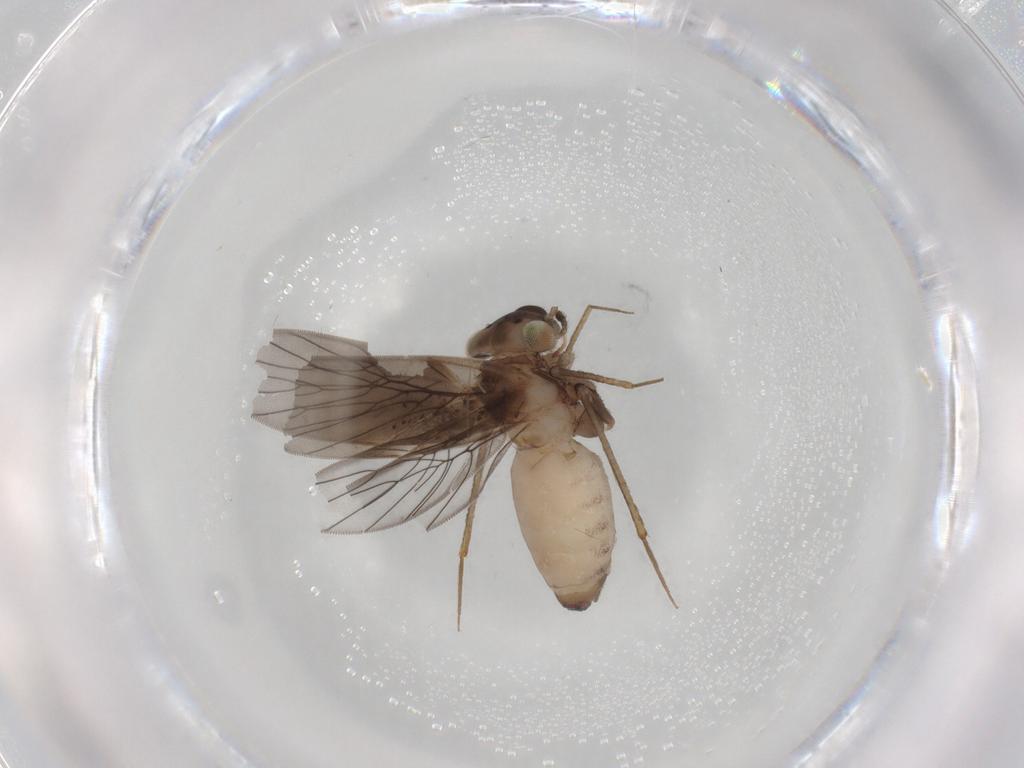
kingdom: Animalia
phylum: Arthropoda
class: Insecta
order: Psocodea
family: Lepidopsocidae
